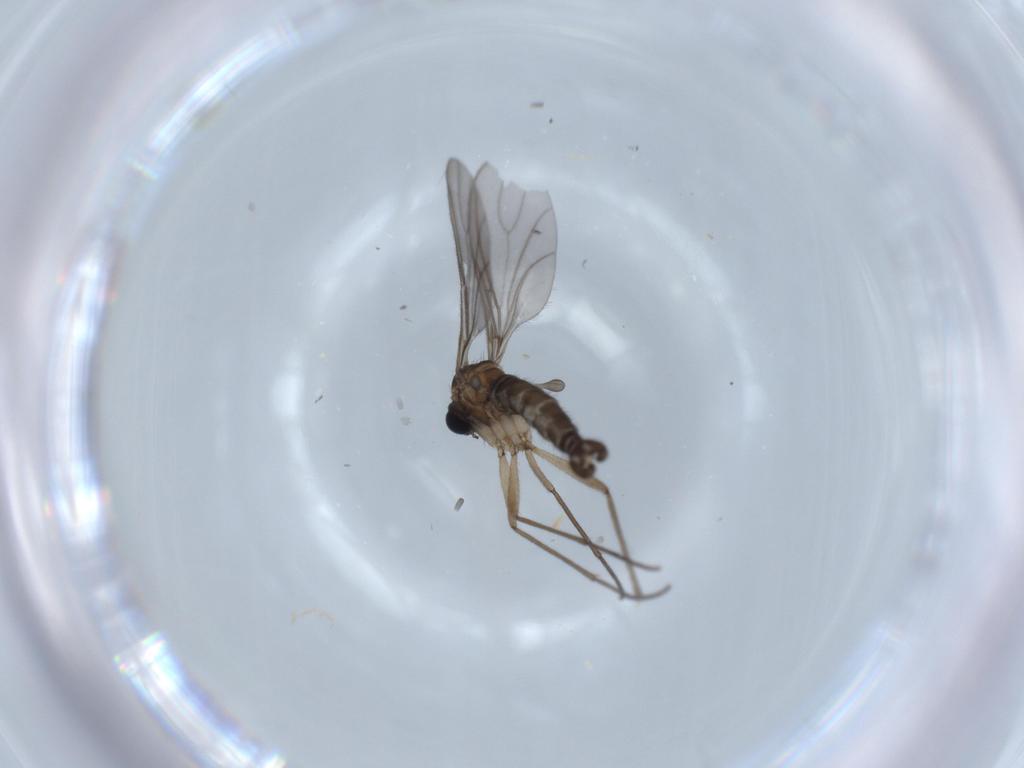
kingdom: Animalia
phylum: Arthropoda
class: Insecta
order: Diptera
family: Sciaridae
